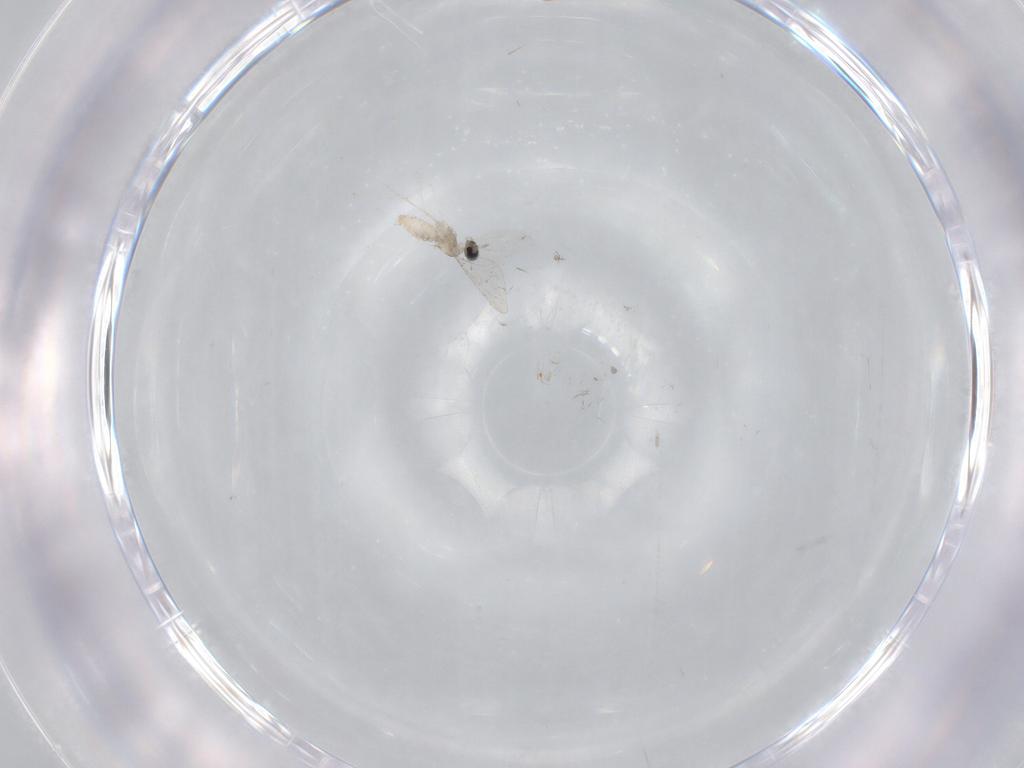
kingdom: Animalia
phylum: Arthropoda
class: Insecta
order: Diptera
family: Cecidomyiidae
